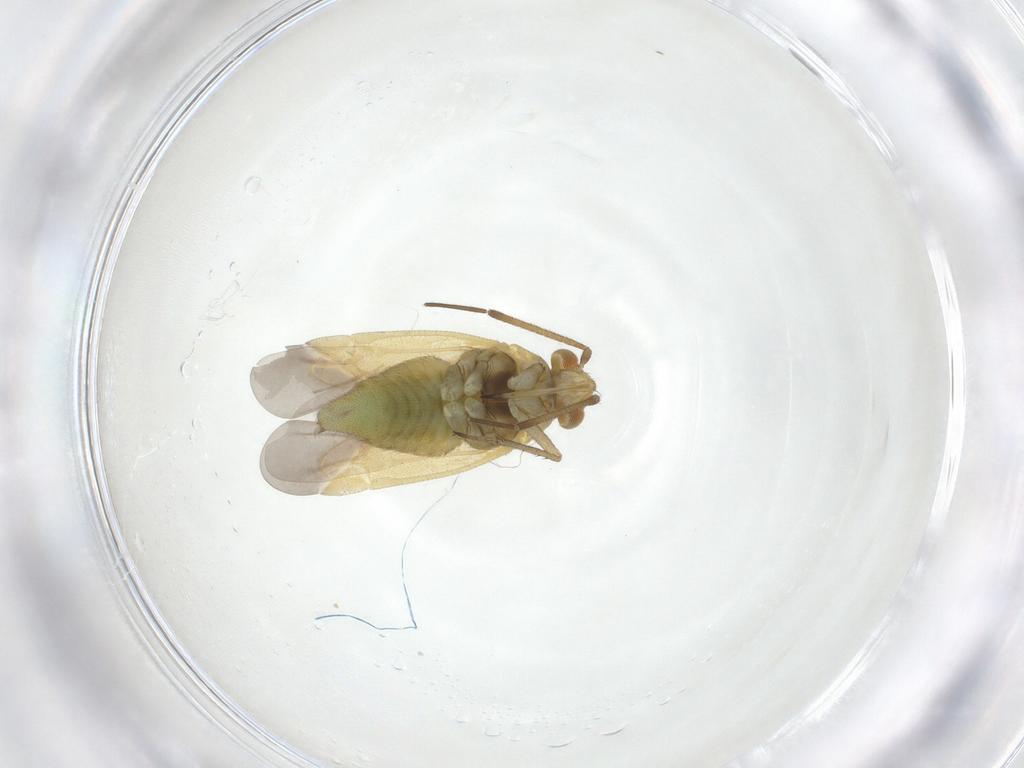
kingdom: Animalia
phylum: Arthropoda
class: Insecta
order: Hemiptera
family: Miridae
